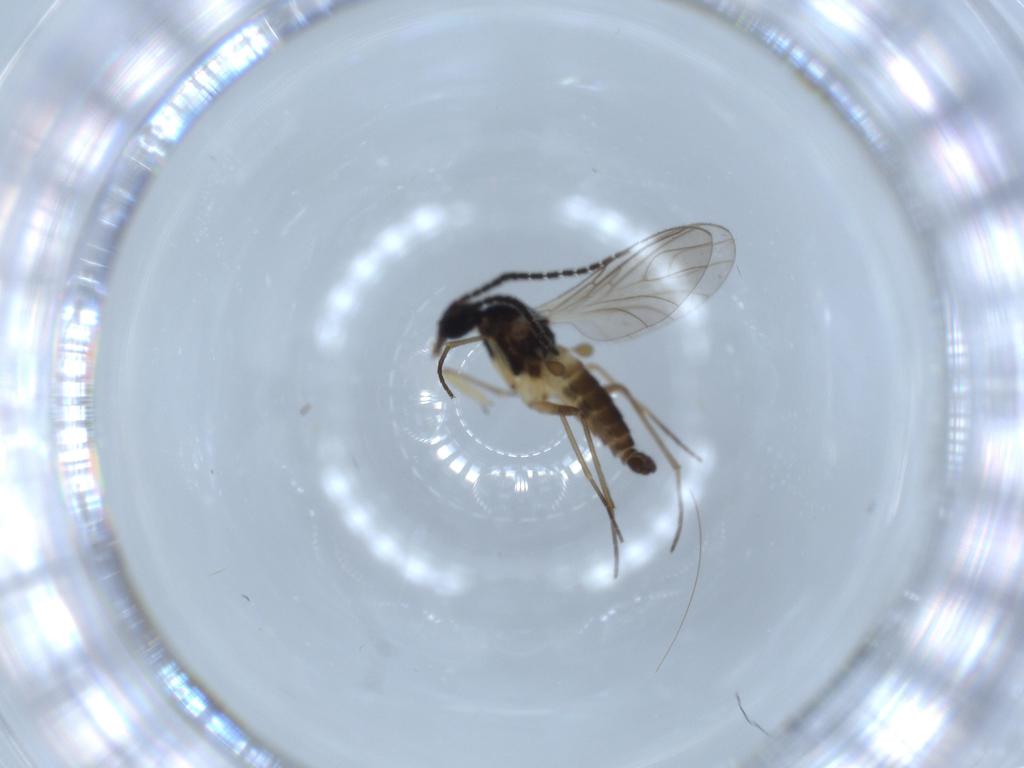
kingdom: Animalia
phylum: Arthropoda
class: Insecta
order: Diptera
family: Sciaridae
